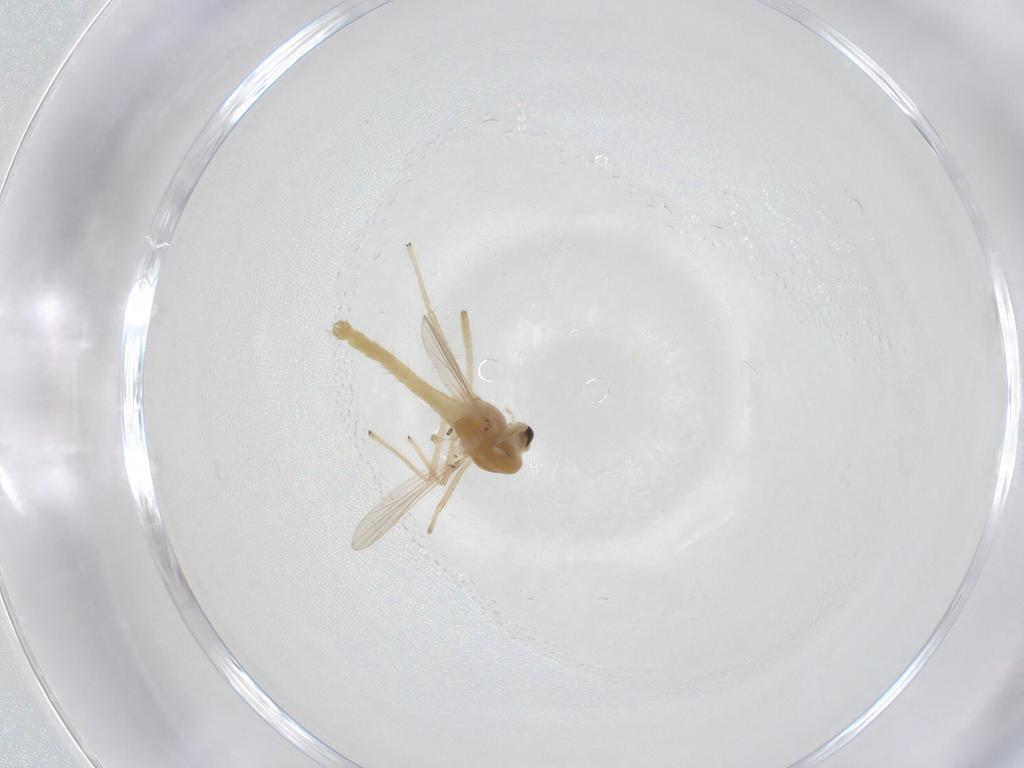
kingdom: Animalia
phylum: Arthropoda
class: Insecta
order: Diptera
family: Chironomidae
